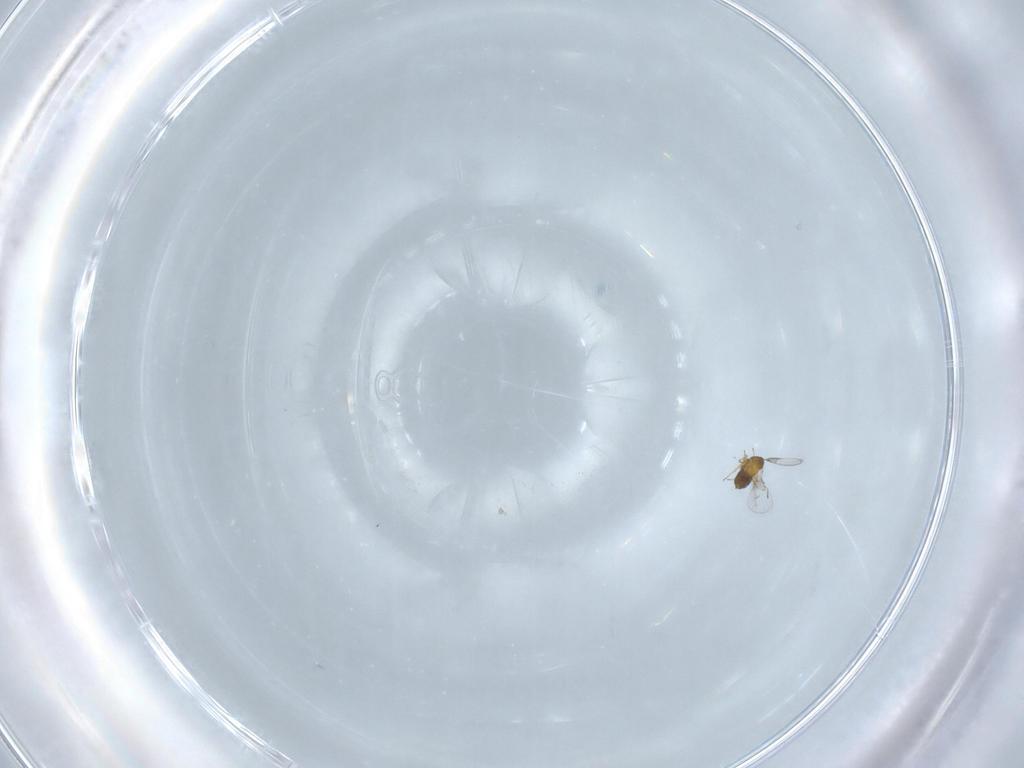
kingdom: Animalia
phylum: Arthropoda
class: Insecta
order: Hymenoptera
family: Trichogrammatidae
